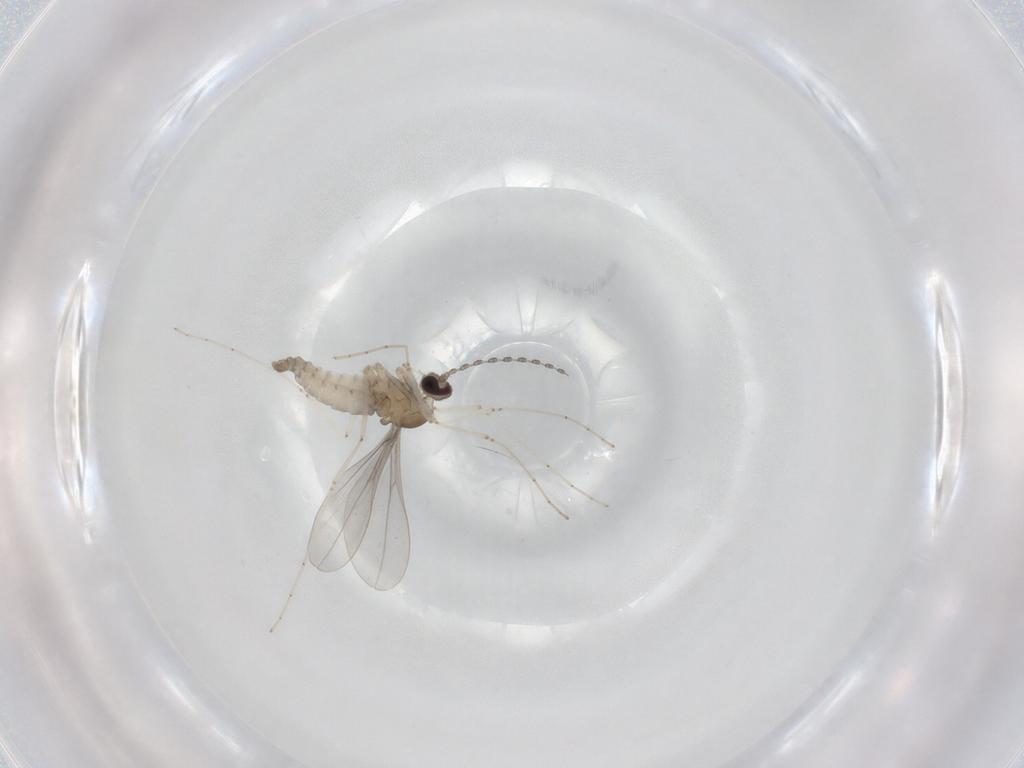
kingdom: Animalia
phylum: Arthropoda
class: Insecta
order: Diptera
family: Cecidomyiidae
